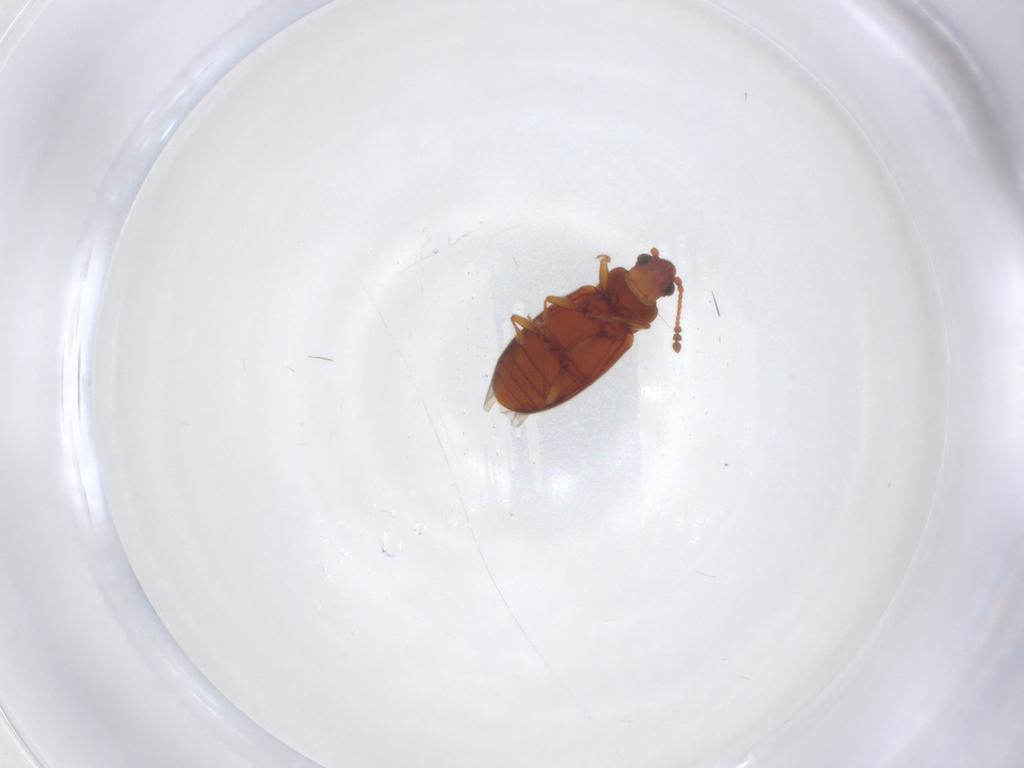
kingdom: Animalia
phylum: Arthropoda
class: Insecta
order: Coleoptera
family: Cryptophagidae
